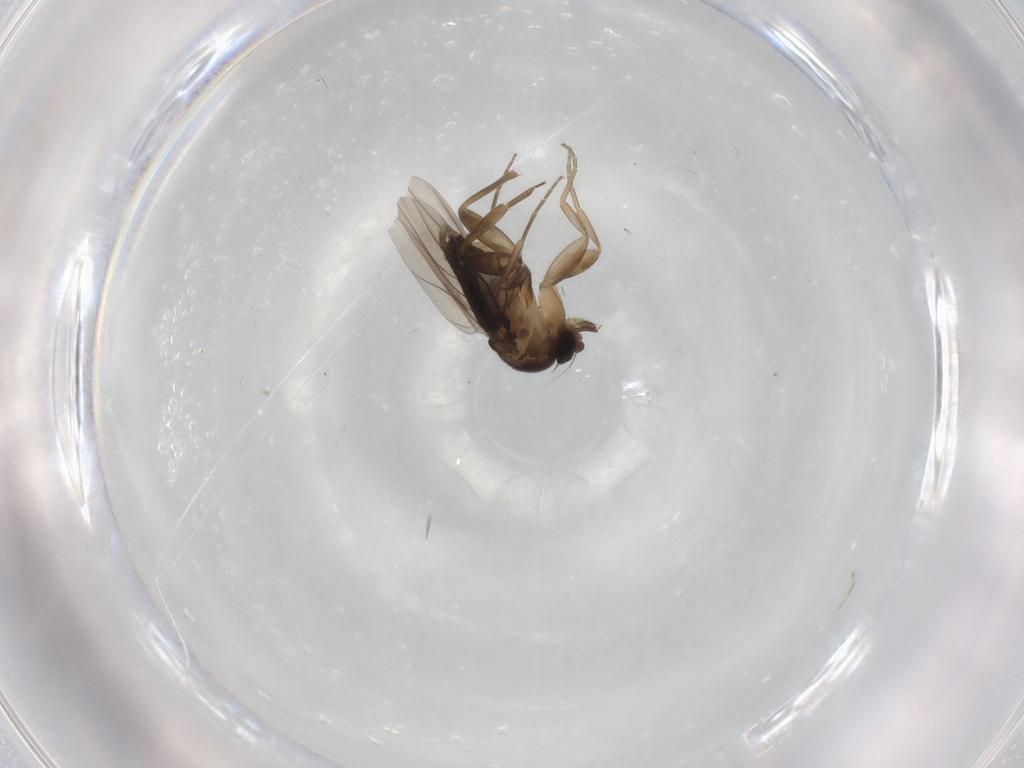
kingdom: Animalia
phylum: Arthropoda
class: Insecta
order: Diptera
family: Phoridae
